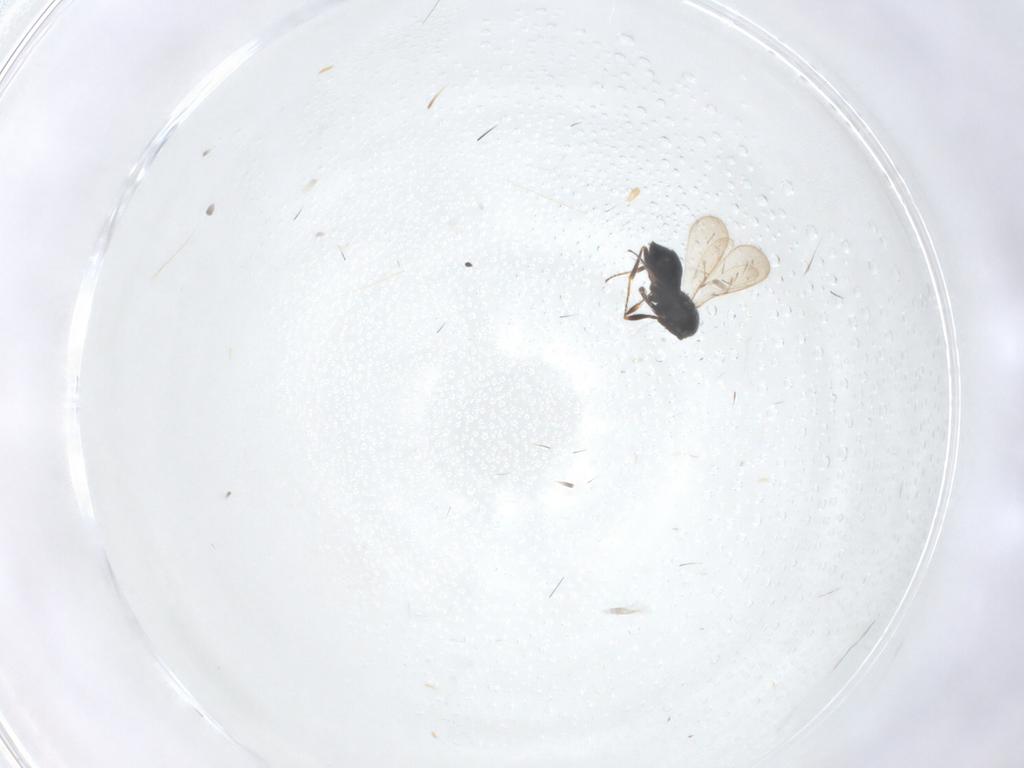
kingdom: Animalia
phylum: Arthropoda
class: Insecta
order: Hymenoptera
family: Scelionidae
